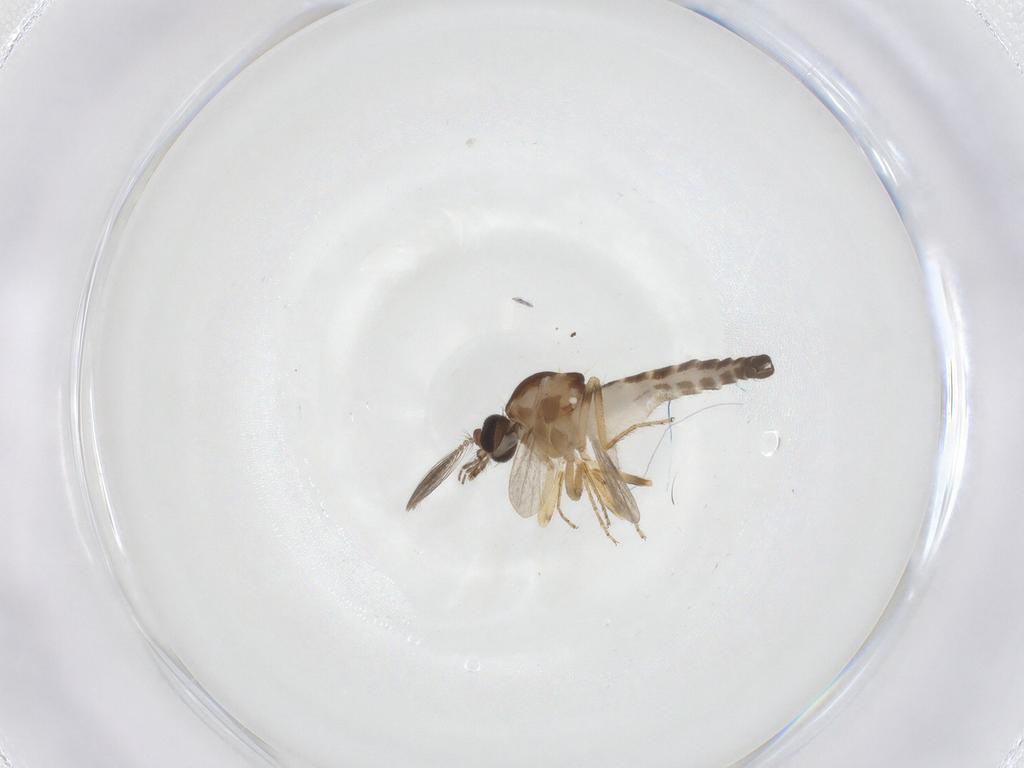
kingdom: Animalia
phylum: Arthropoda
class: Insecta
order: Diptera
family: Ceratopogonidae
